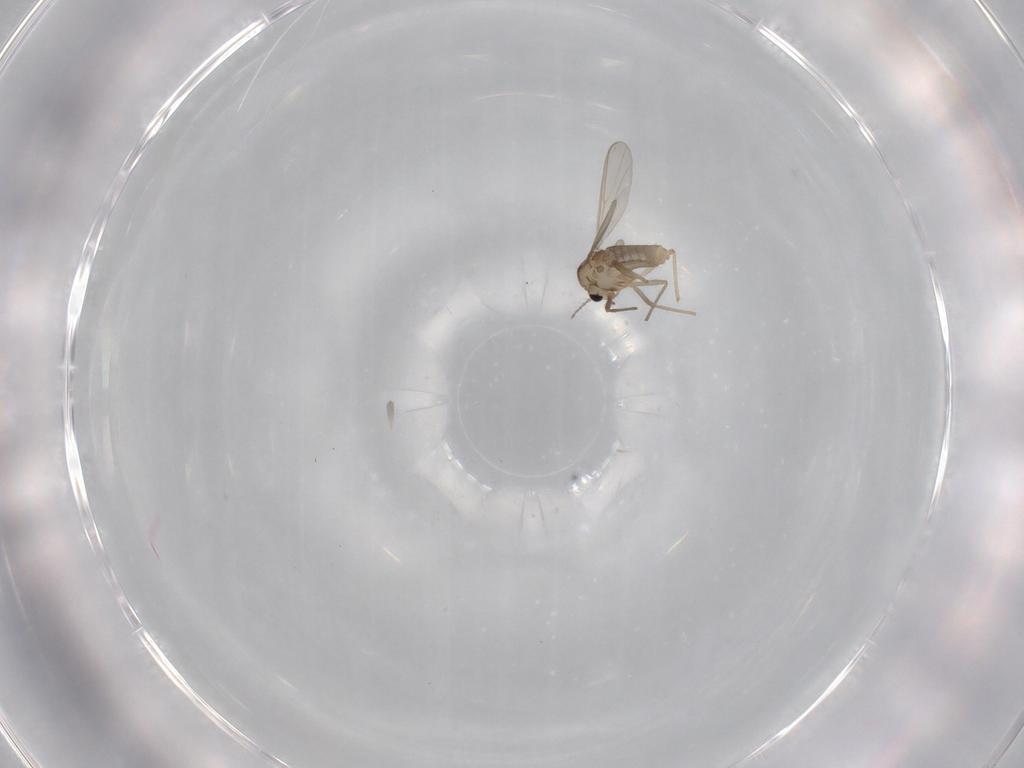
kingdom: Animalia
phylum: Arthropoda
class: Insecta
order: Diptera
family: Chironomidae
